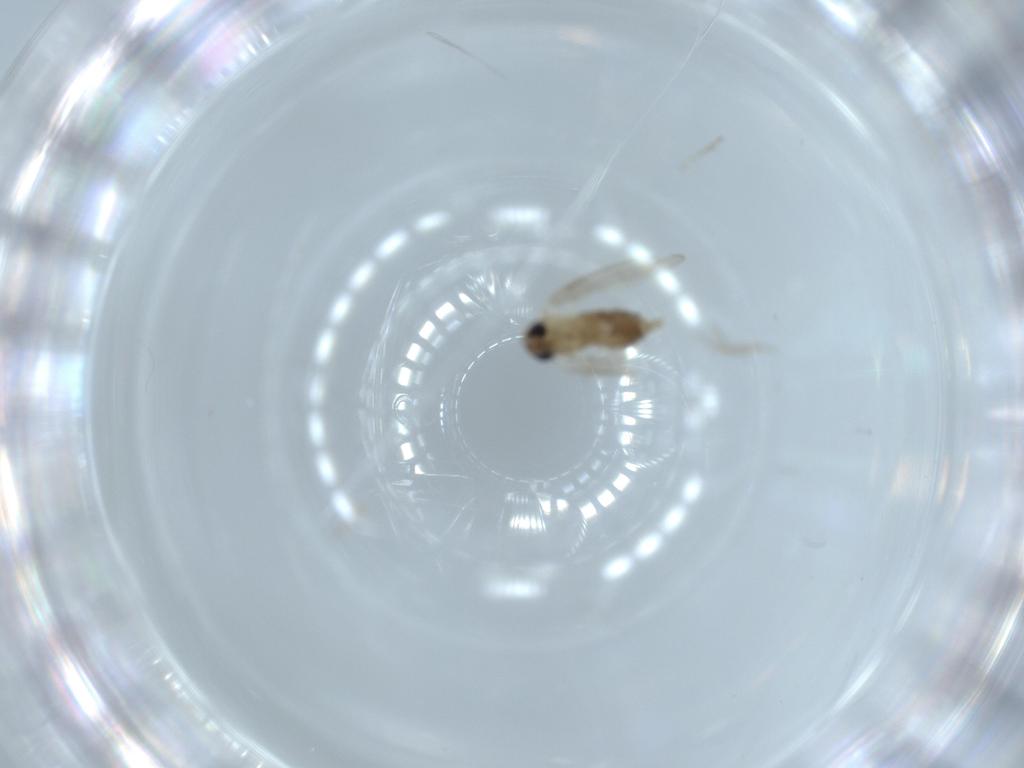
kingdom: Animalia
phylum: Arthropoda
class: Insecta
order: Diptera
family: Psychodidae
